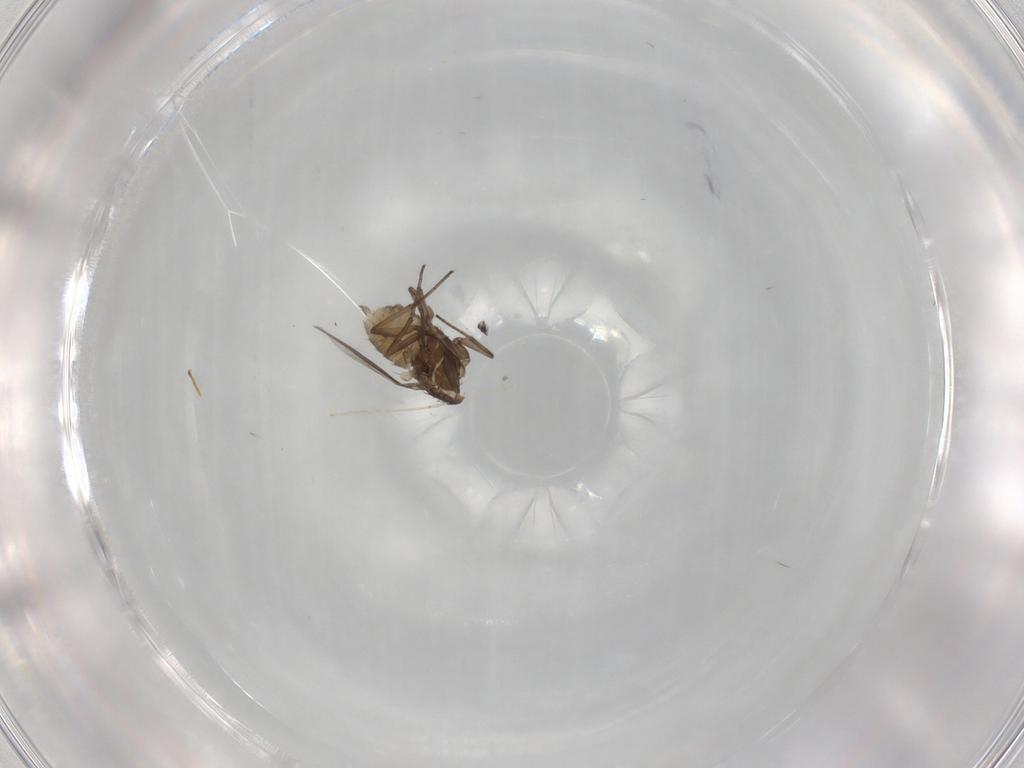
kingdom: Animalia
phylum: Arthropoda
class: Insecta
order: Diptera
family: Dolichopodidae
